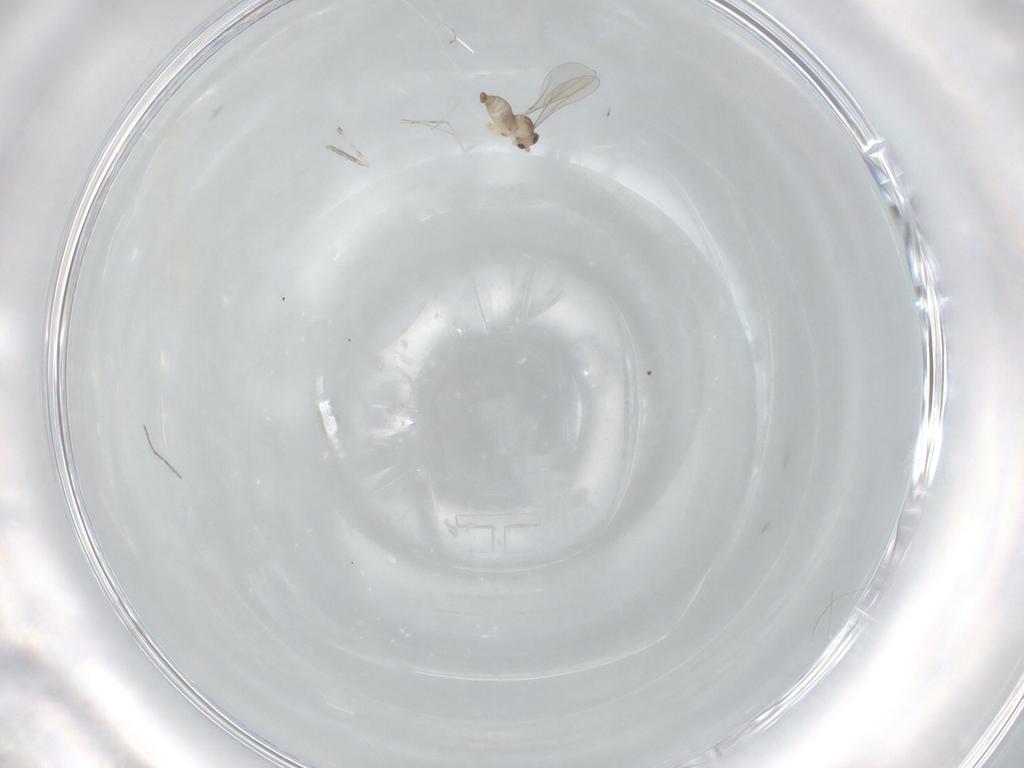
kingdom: Animalia
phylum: Arthropoda
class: Insecta
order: Diptera
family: Cecidomyiidae
